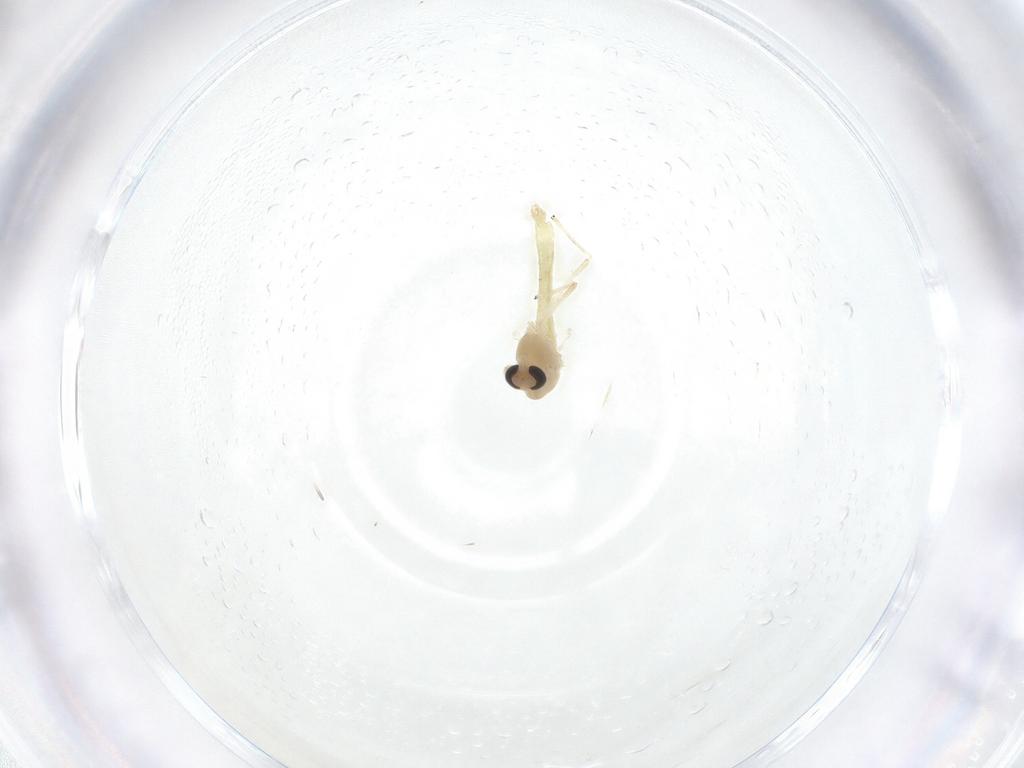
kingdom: Animalia
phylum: Arthropoda
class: Insecta
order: Diptera
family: Chironomidae
